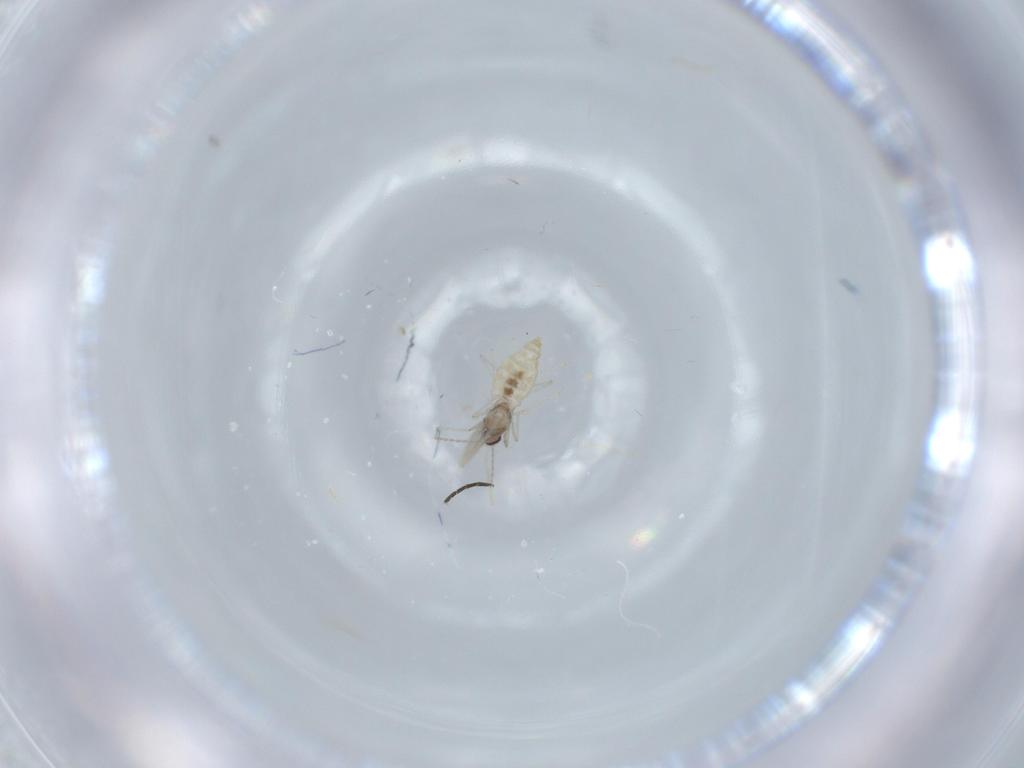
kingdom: Animalia
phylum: Arthropoda
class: Insecta
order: Diptera
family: Cecidomyiidae
